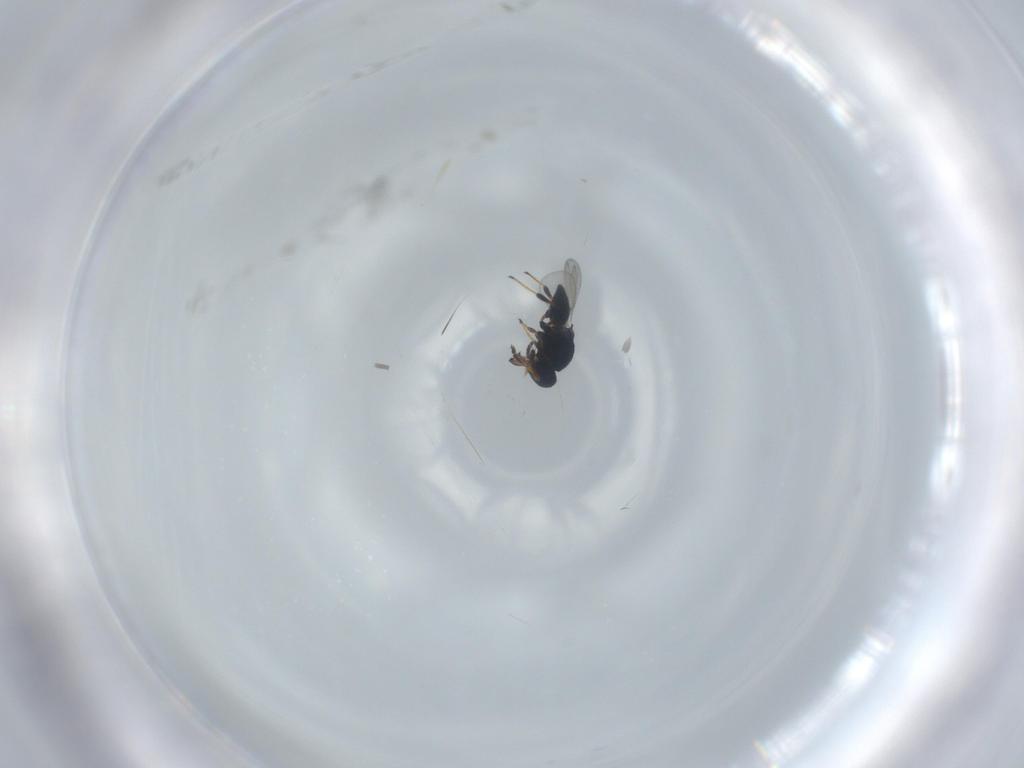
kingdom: Animalia
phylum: Arthropoda
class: Insecta
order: Hymenoptera
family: Platygastridae
